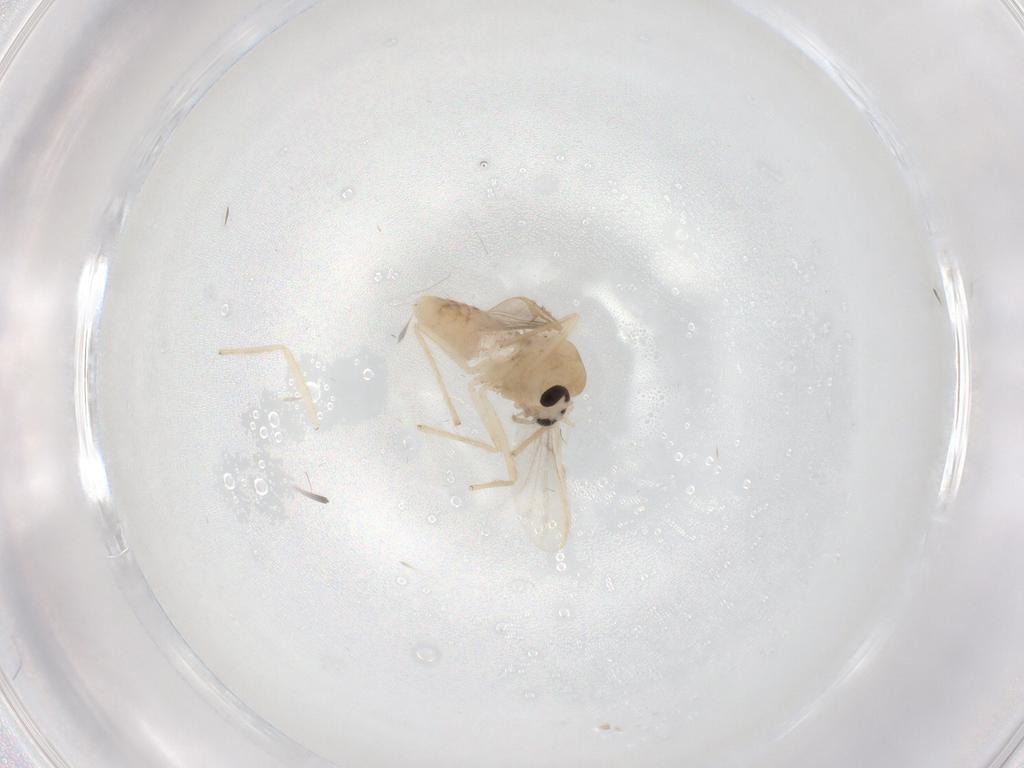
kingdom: Animalia
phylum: Arthropoda
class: Insecta
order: Diptera
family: Chironomidae
